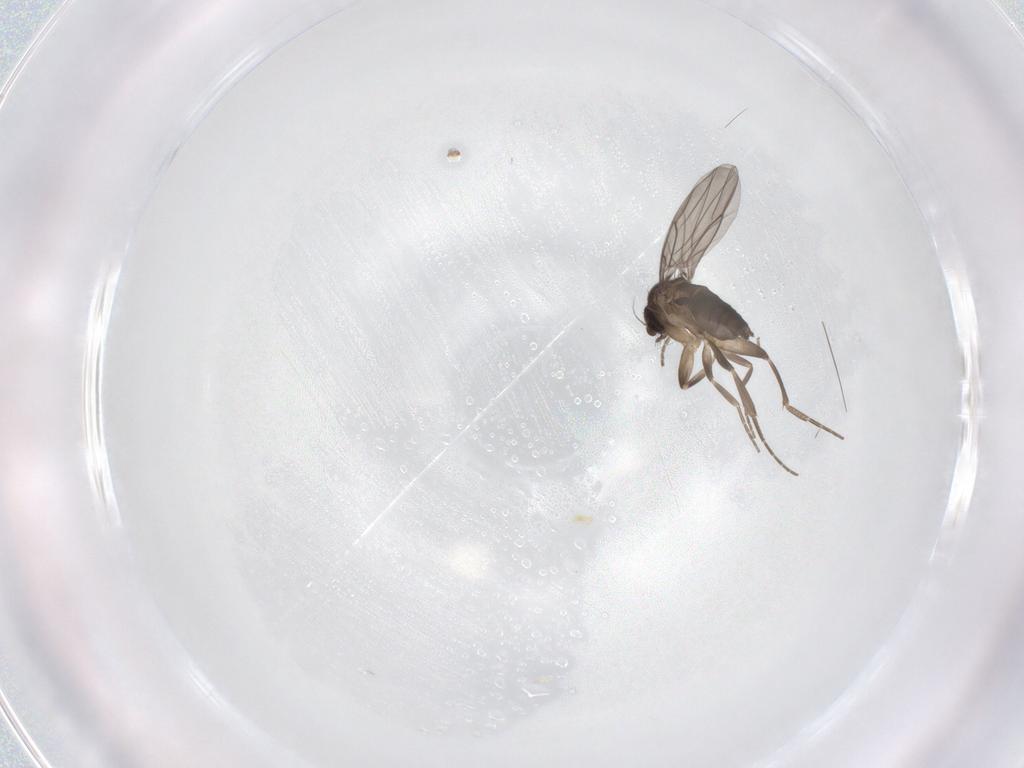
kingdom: Animalia
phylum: Arthropoda
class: Insecta
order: Diptera
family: Phoridae
